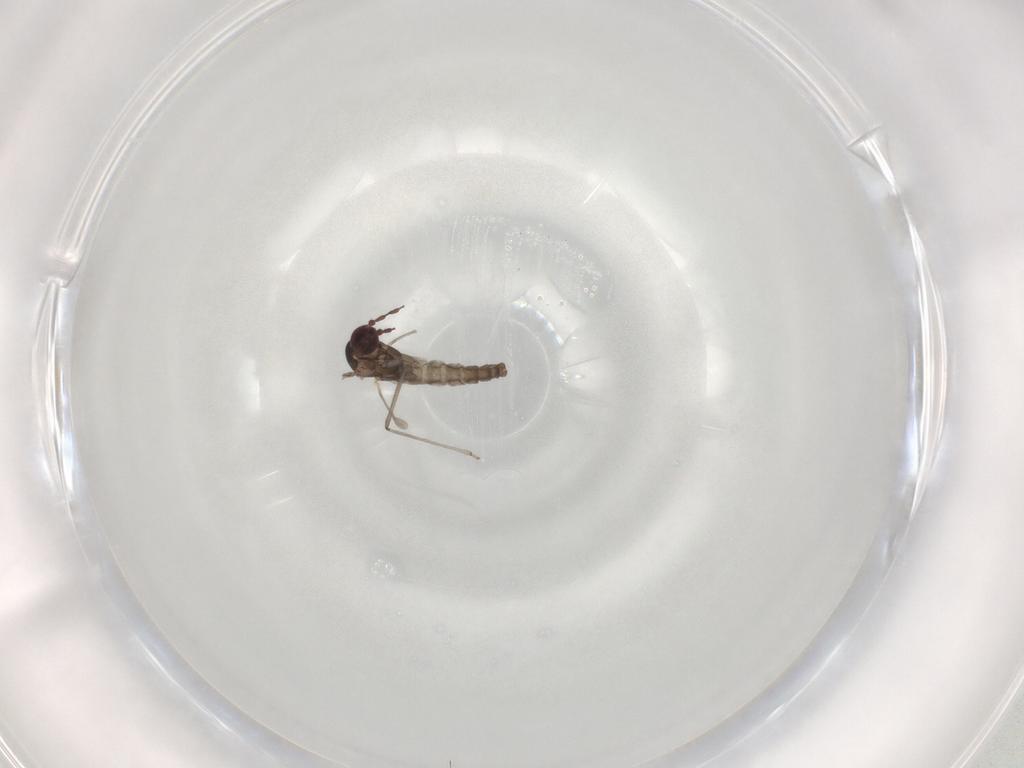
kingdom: Animalia
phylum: Arthropoda
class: Insecta
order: Diptera
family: Cecidomyiidae
